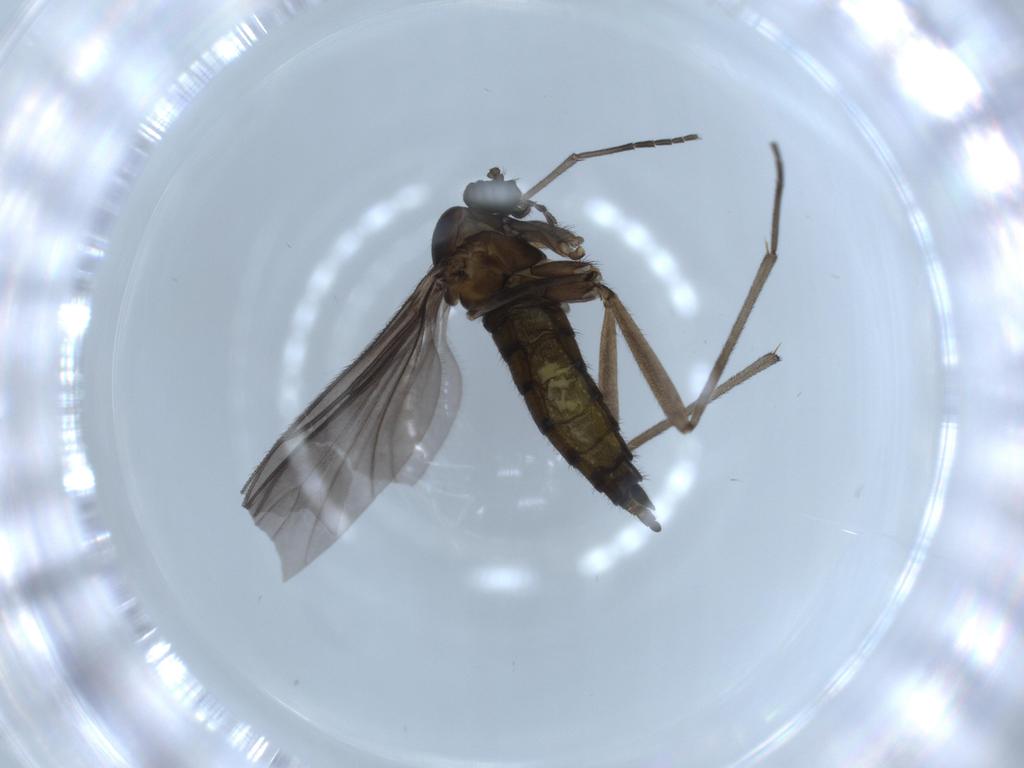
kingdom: Animalia
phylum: Arthropoda
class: Insecta
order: Diptera
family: Sciaridae
